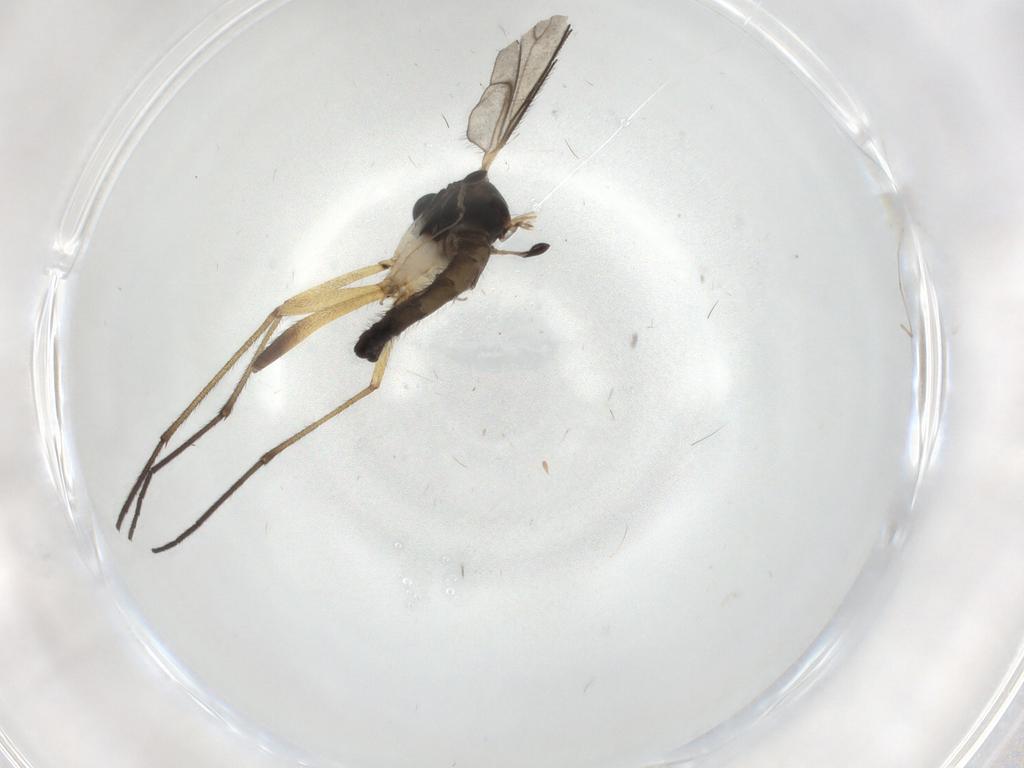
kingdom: Animalia
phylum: Arthropoda
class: Insecta
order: Diptera
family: Sciaridae
